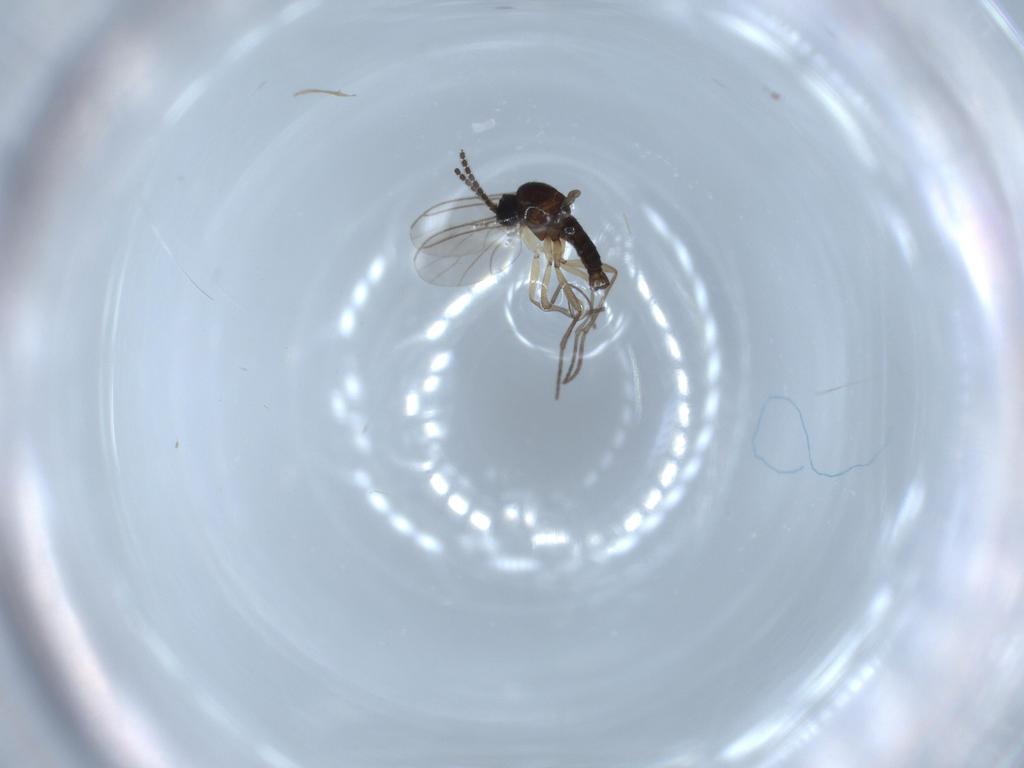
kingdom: Animalia
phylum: Arthropoda
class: Insecta
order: Diptera
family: Sciaridae
